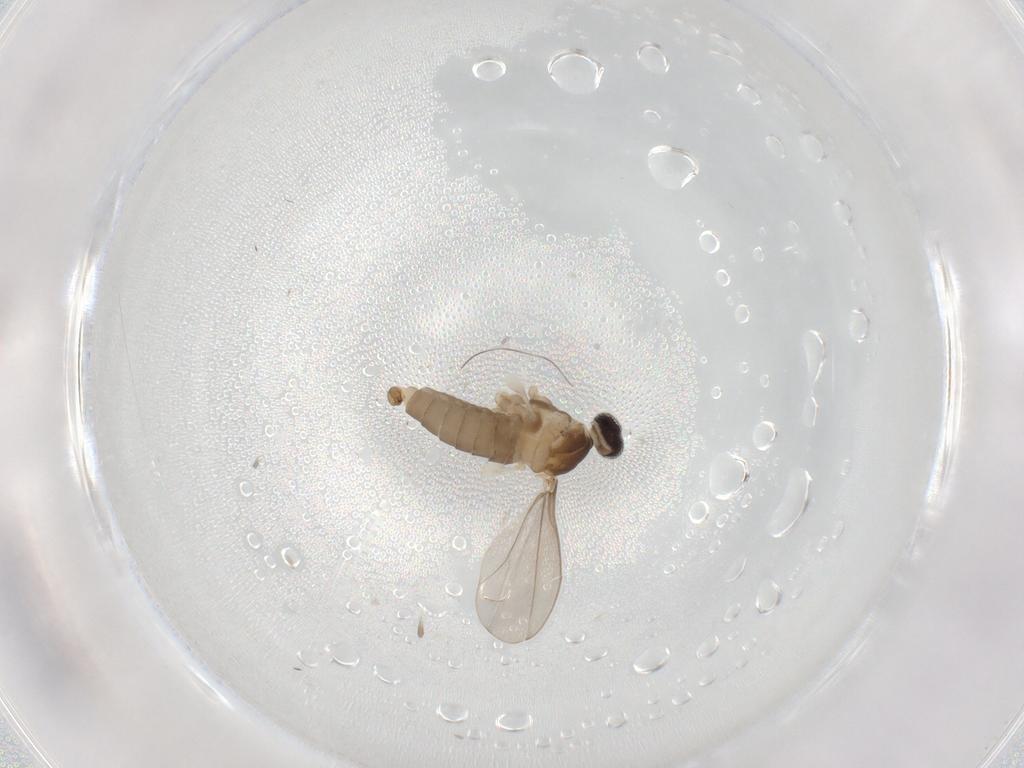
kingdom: Animalia
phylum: Arthropoda
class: Insecta
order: Diptera
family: Cecidomyiidae
